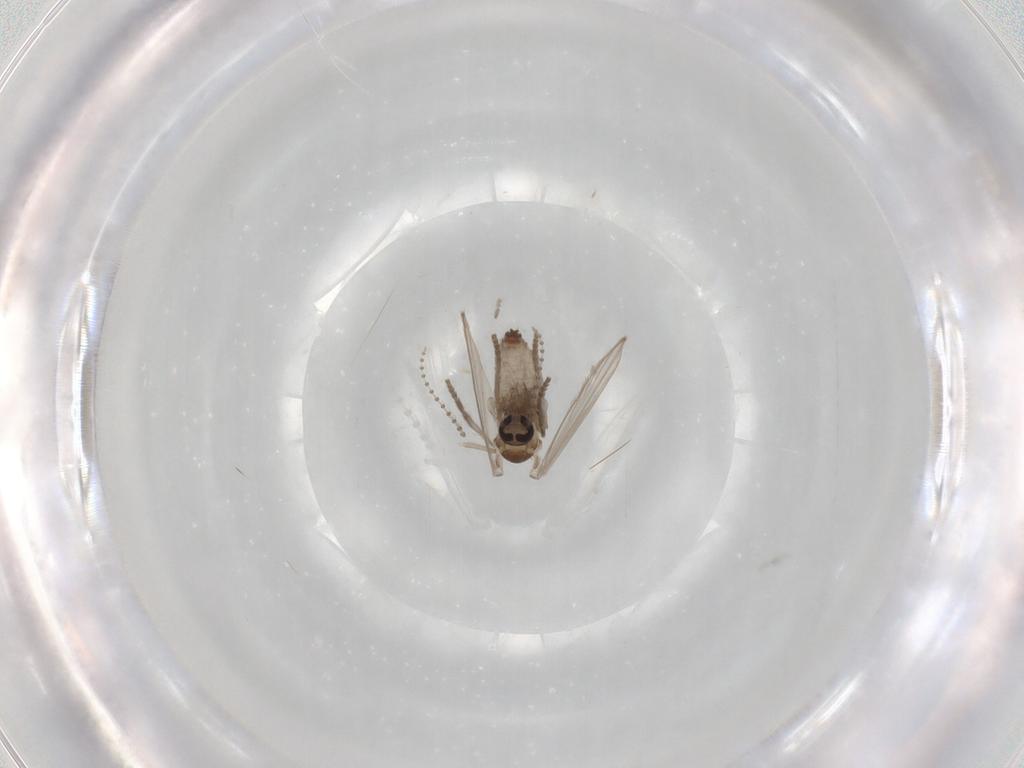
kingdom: Animalia
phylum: Arthropoda
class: Insecta
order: Diptera
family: Psychodidae
